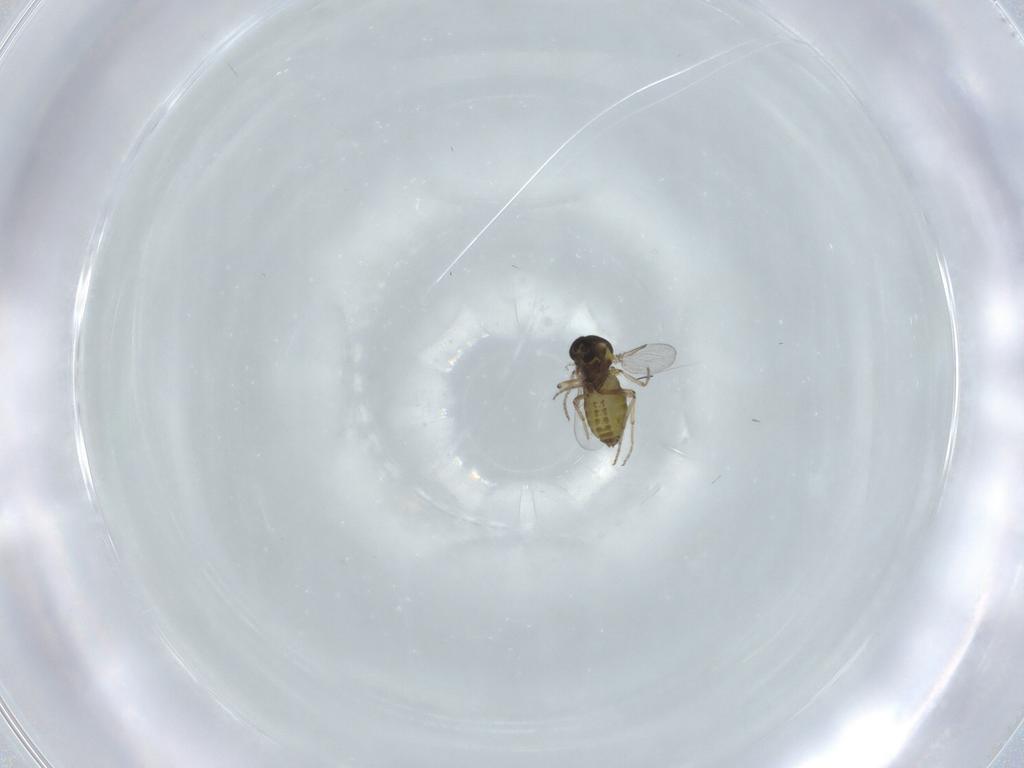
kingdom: Animalia
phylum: Arthropoda
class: Insecta
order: Diptera
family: Ceratopogonidae
